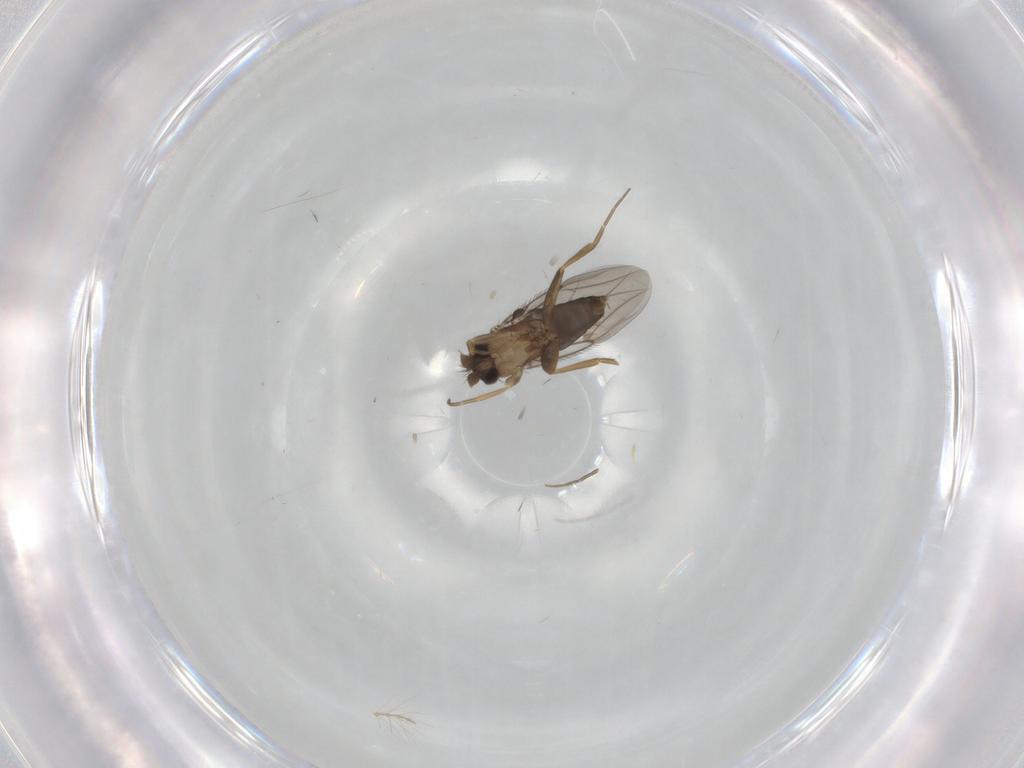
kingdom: Animalia
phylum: Arthropoda
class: Insecta
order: Diptera
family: Phoridae
